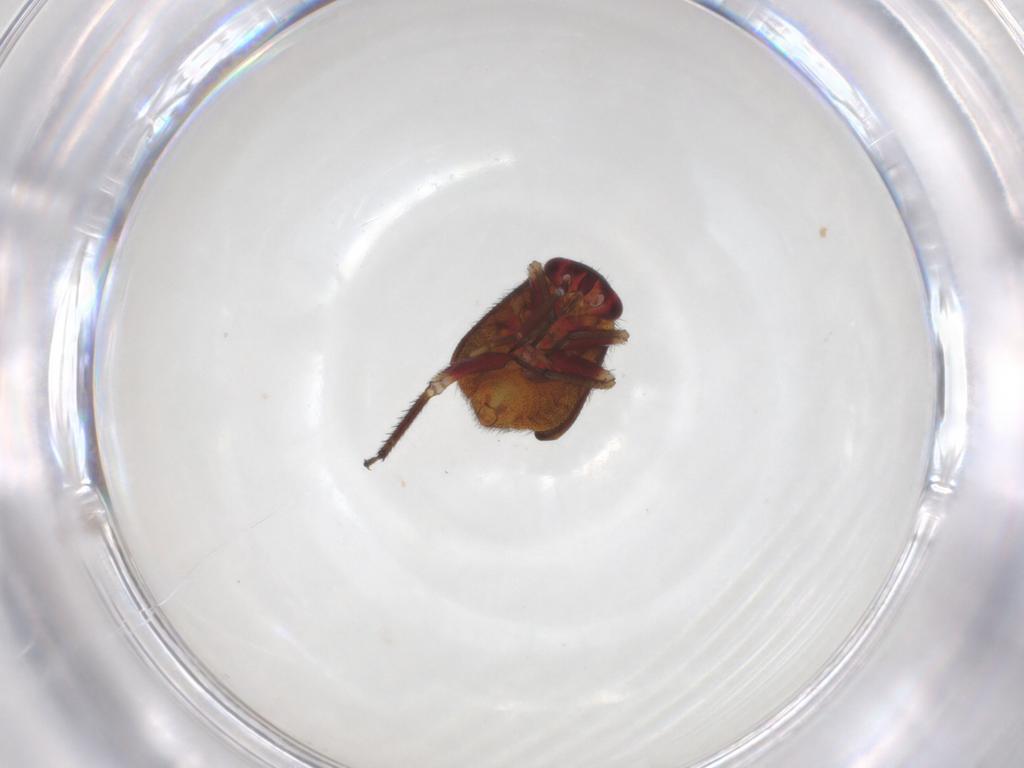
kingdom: Animalia
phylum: Arthropoda
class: Insecta
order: Hemiptera
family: Miridae
